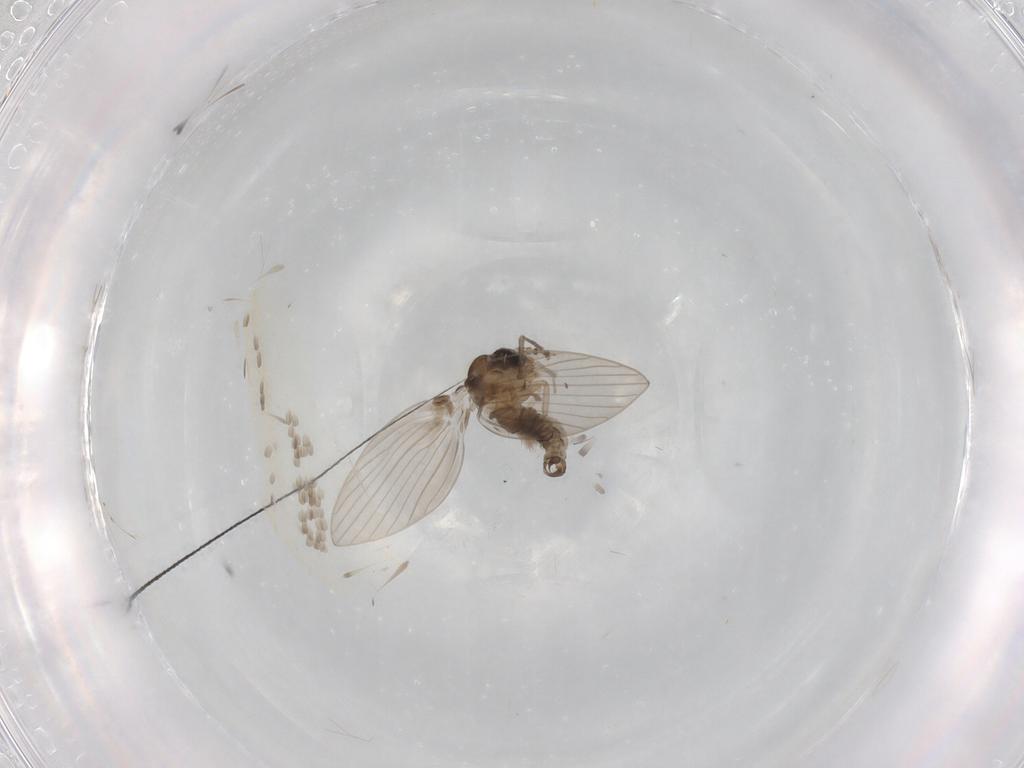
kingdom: Animalia
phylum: Arthropoda
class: Insecta
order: Diptera
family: Psychodidae
